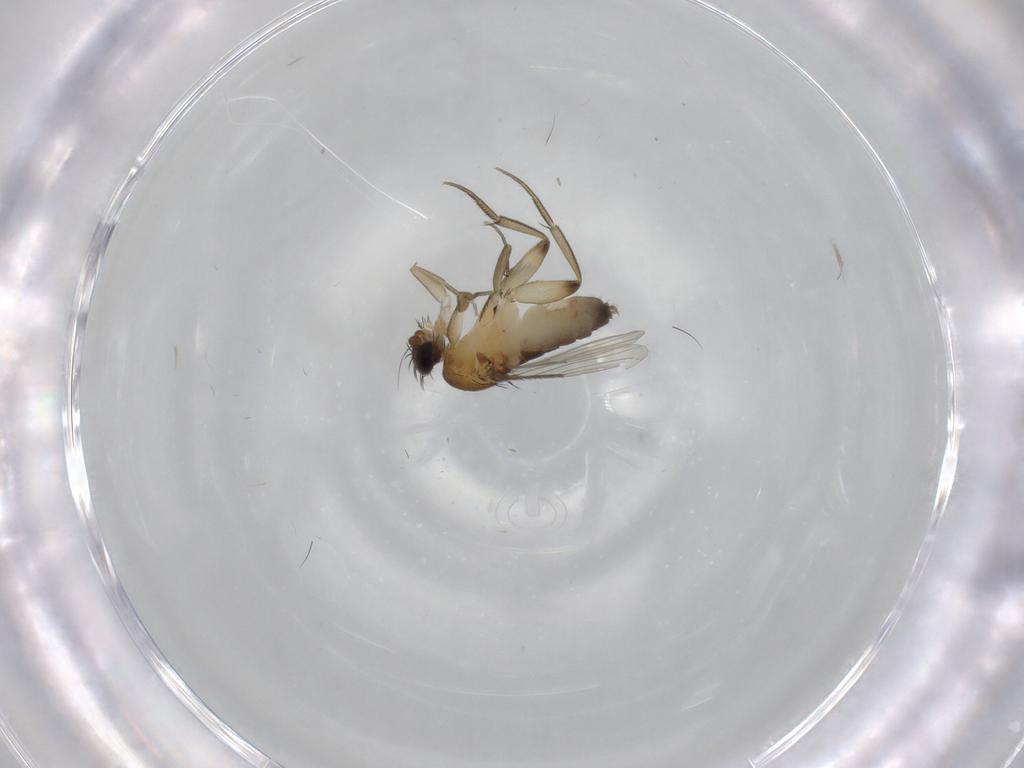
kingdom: Animalia
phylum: Arthropoda
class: Insecta
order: Diptera
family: Phoridae
